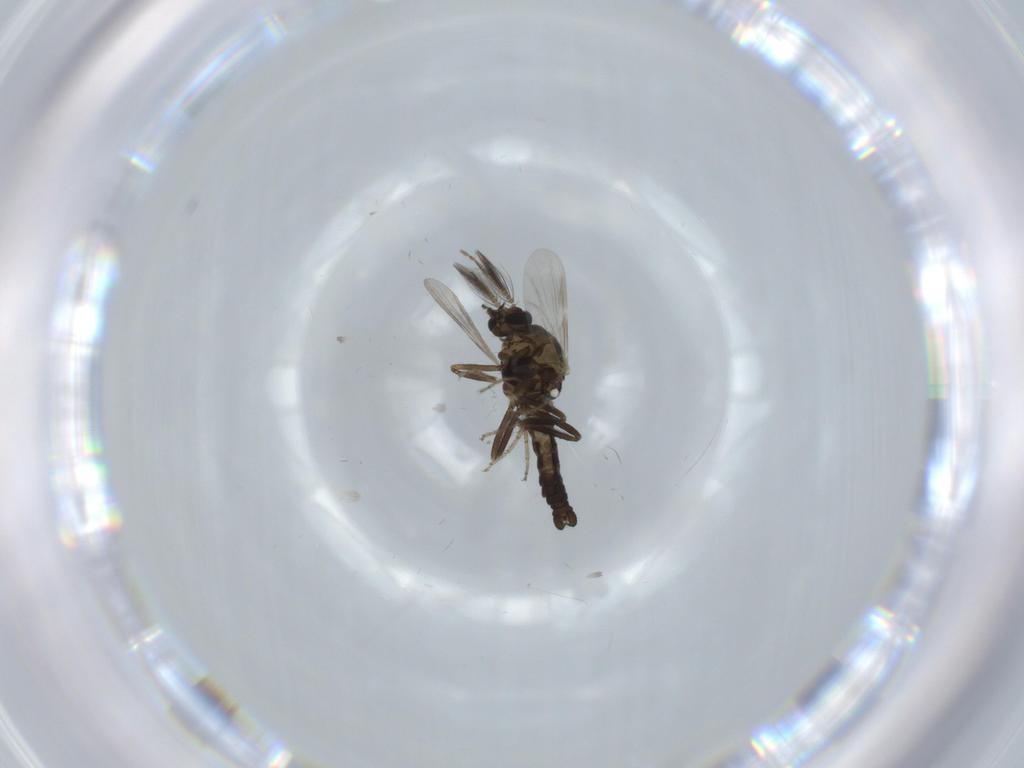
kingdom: Animalia
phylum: Arthropoda
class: Insecta
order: Diptera
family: Ceratopogonidae
